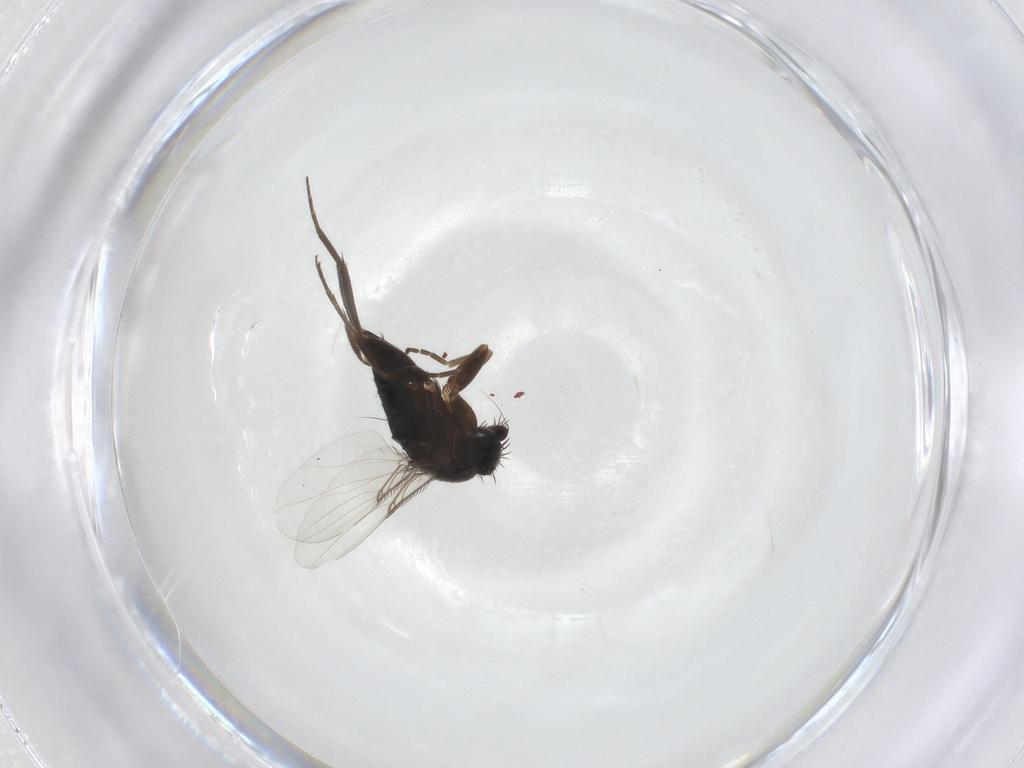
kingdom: Animalia
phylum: Arthropoda
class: Insecta
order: Diptera
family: Phoridae
